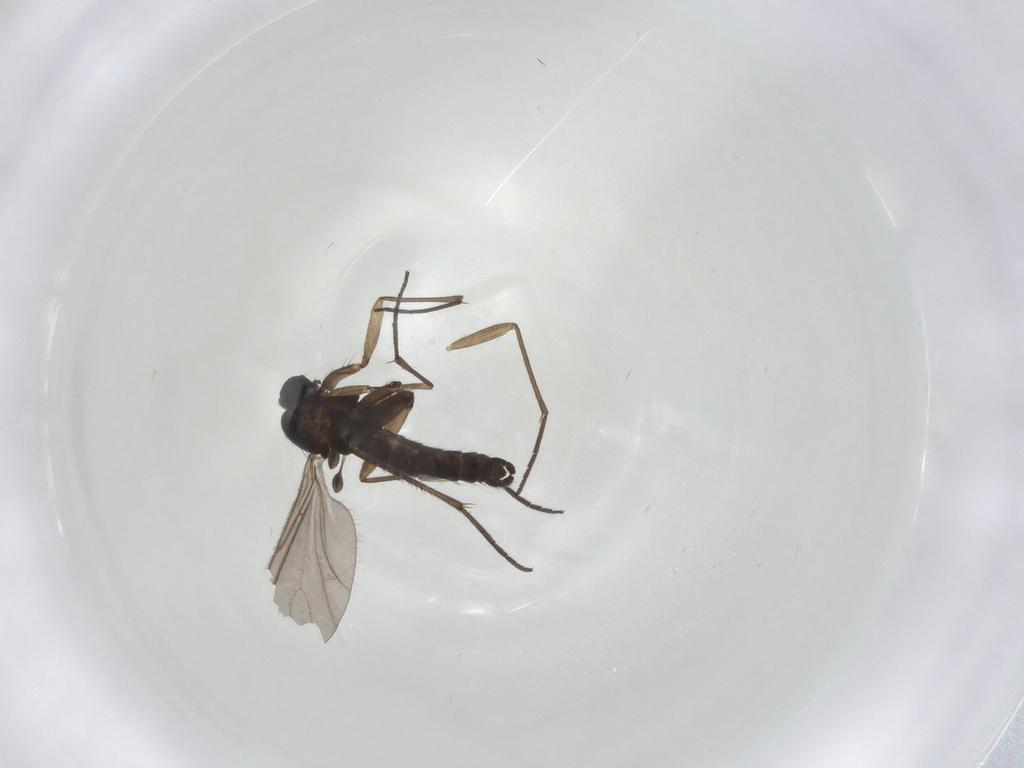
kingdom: Animalia
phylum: Arthropoda
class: Insecta
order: Diptera
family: Sciaridae
